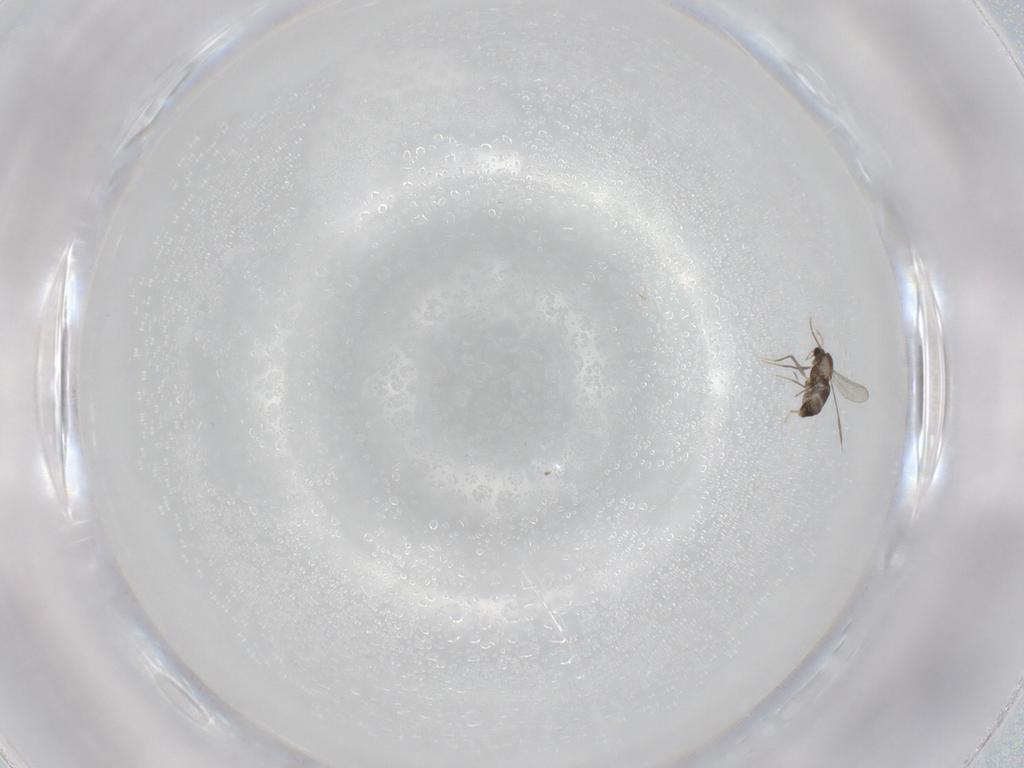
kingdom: Animalia
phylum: Arthropoda
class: Insecta
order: Diptera
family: Chironomidae
